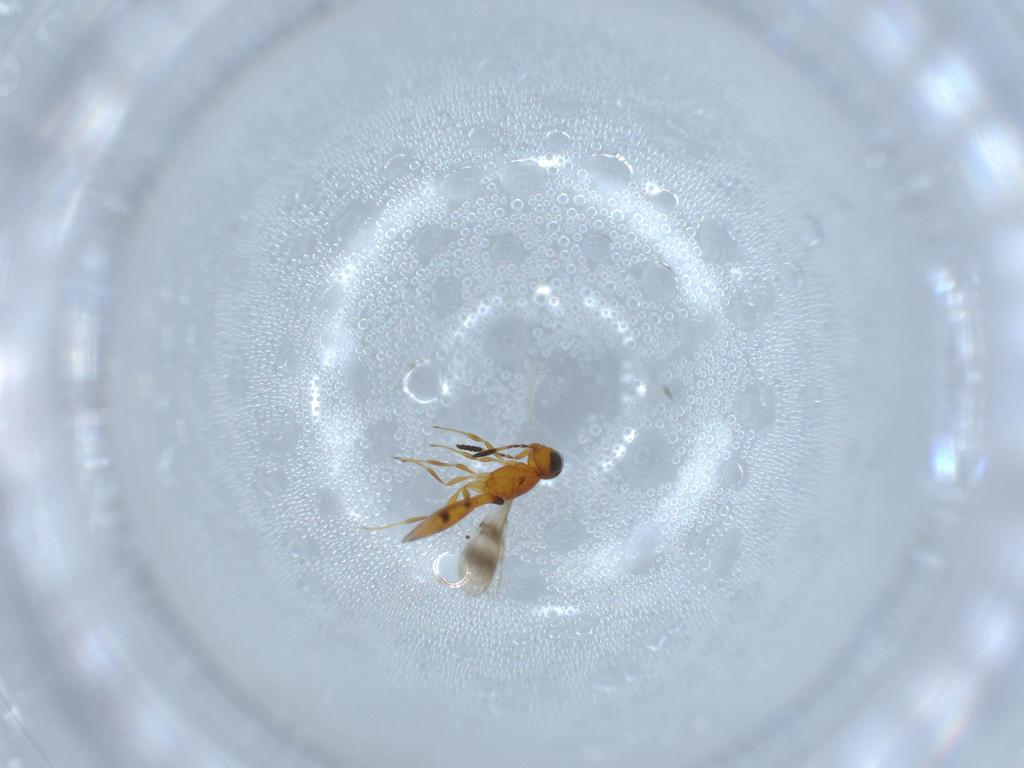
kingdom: Animalia
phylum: Arthropoda
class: Insecta
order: Hymenoptera
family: Scelionidae
